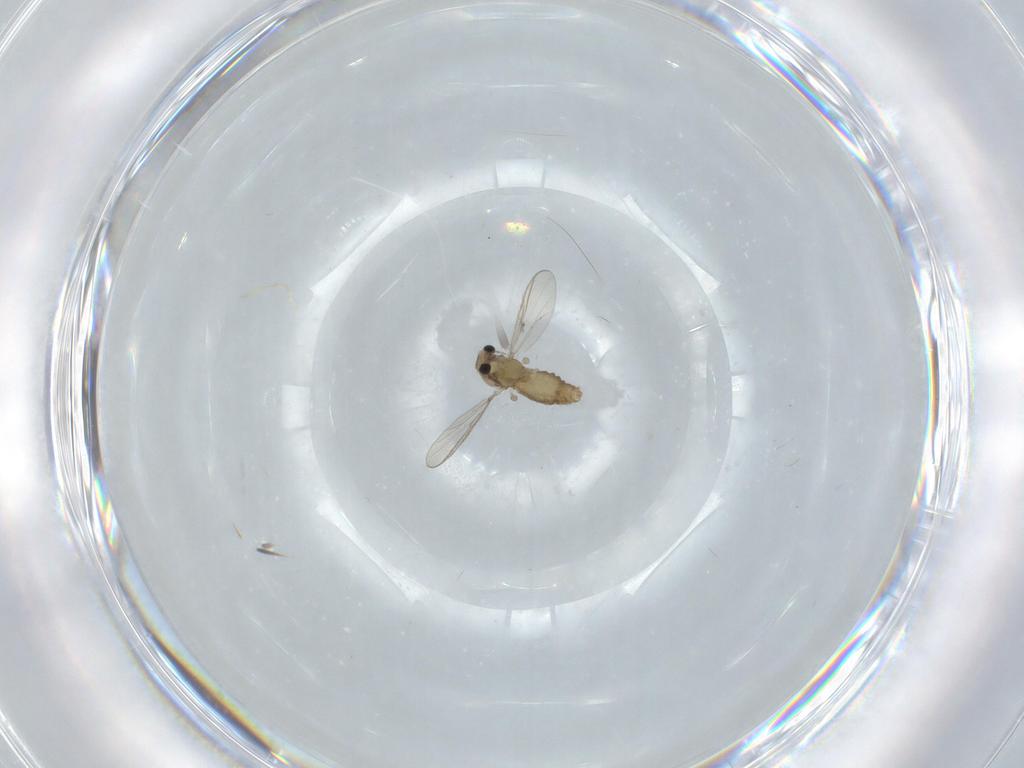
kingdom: Animalia
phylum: Arthropoda
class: Insecta
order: Diptera
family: Chironomidae
